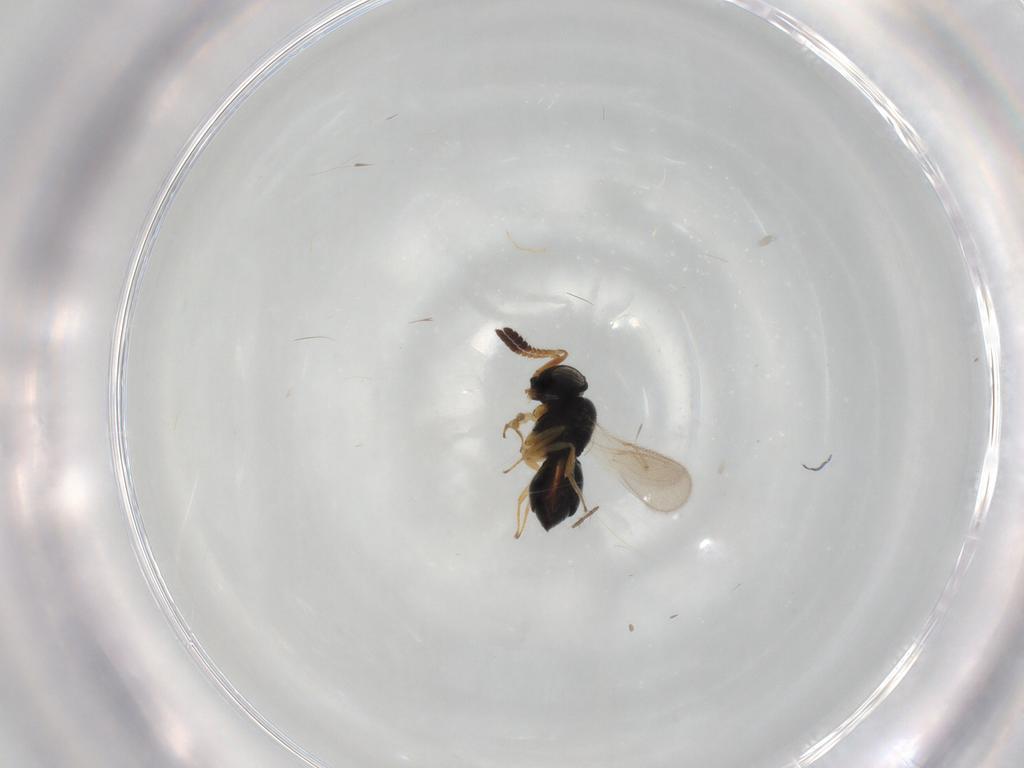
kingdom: Animalia
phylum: Arthropoda
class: Insecta
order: Hymenoptera
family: Scelionidae
